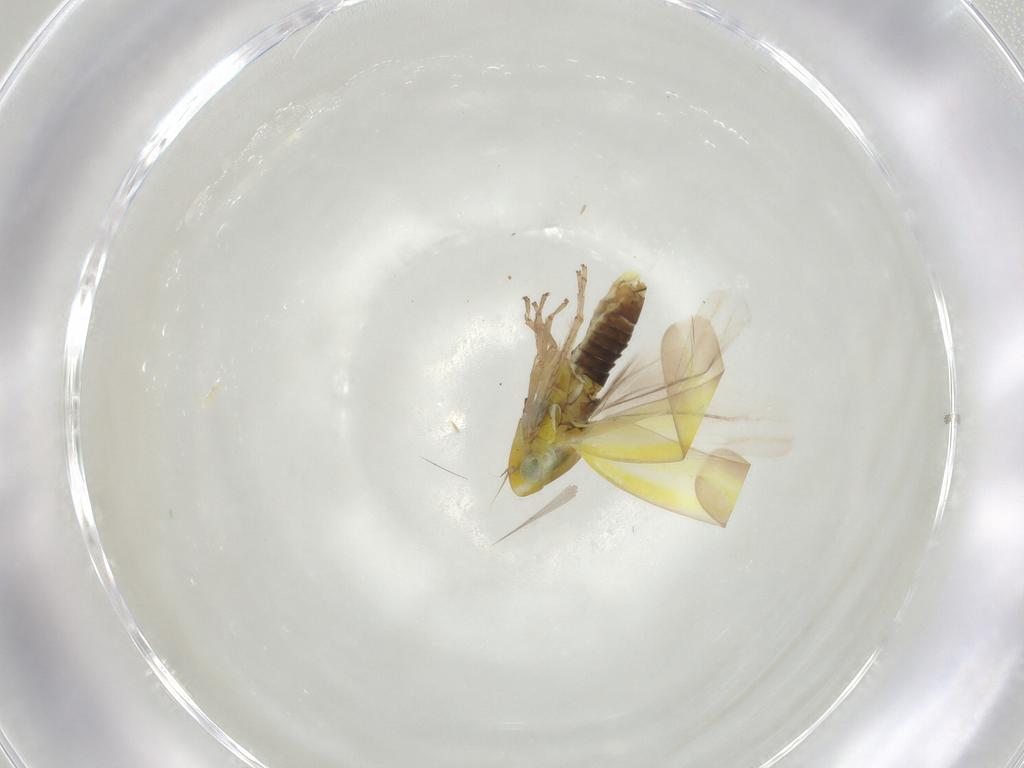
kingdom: Animalia
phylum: Arthropoda
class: Insecta
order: Hemiptera
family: Cicadellidae
